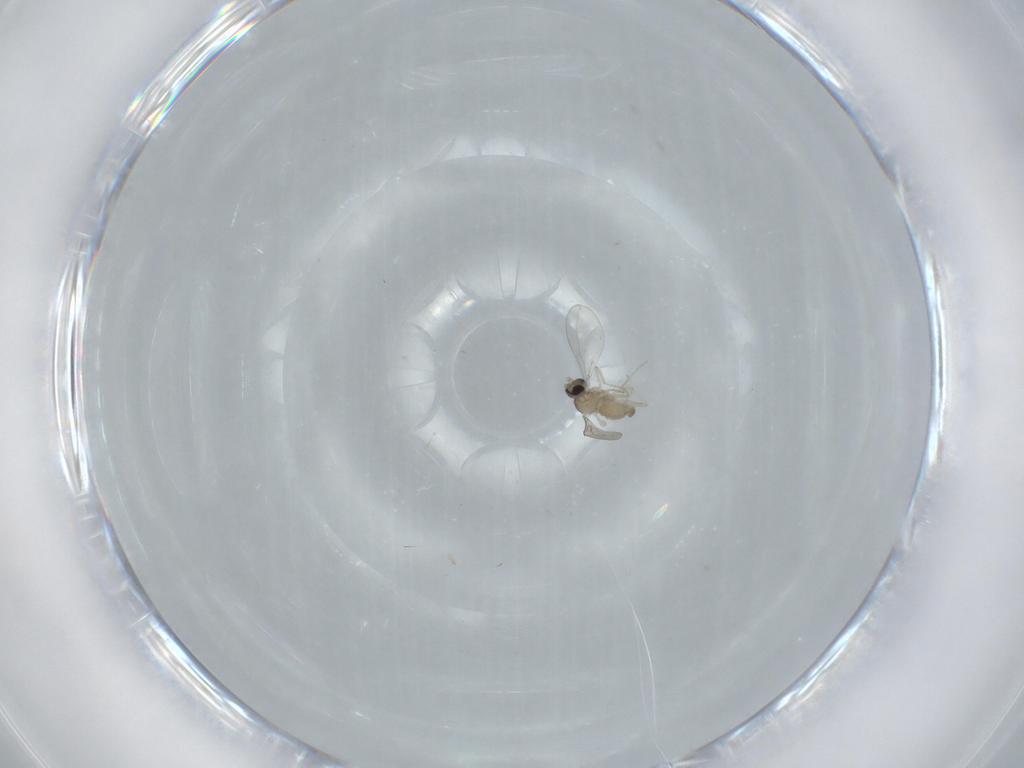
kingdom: Animalia
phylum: Arthropoda
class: Insecta
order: Diptera
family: Cecidomyiidae
